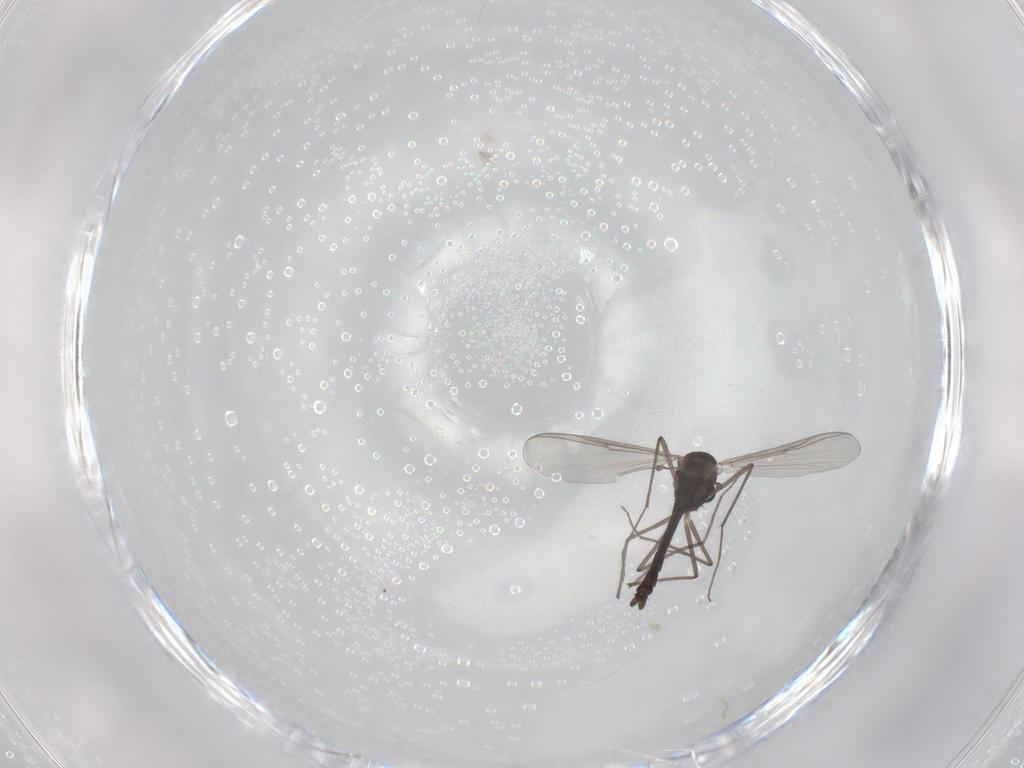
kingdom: Animalia
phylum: Arthropoda
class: Insecta
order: Diptera
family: Chironomidae
